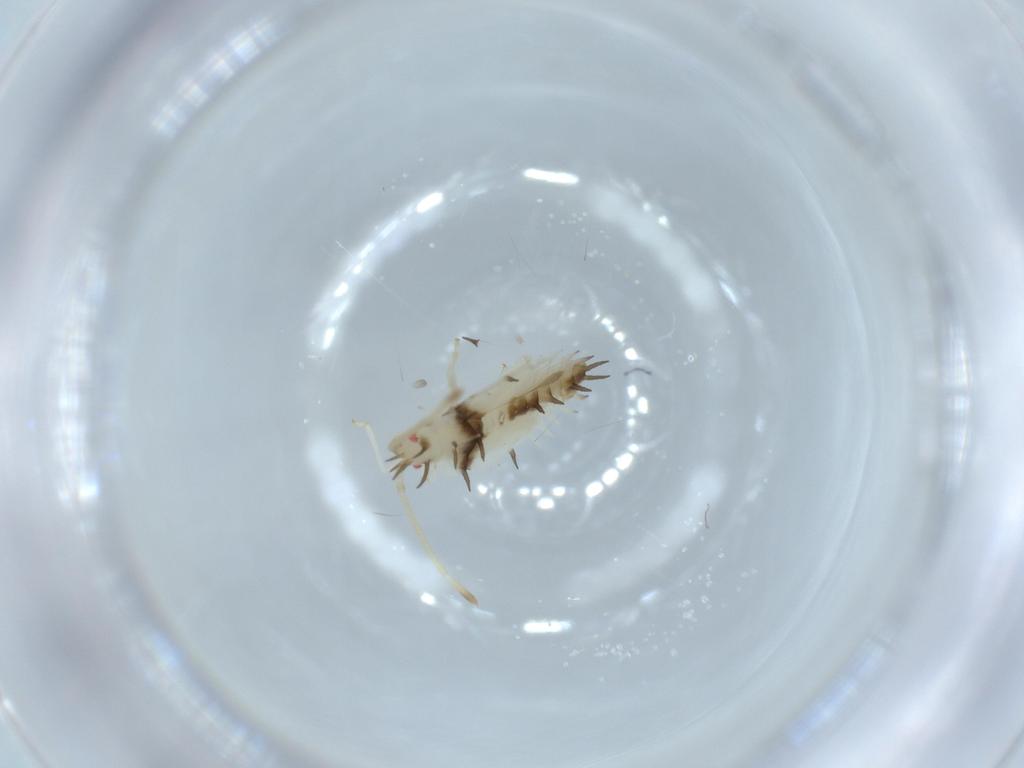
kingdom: Animalia
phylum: Arthropoda
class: Insecta
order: Hemiptera
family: Tingidae
